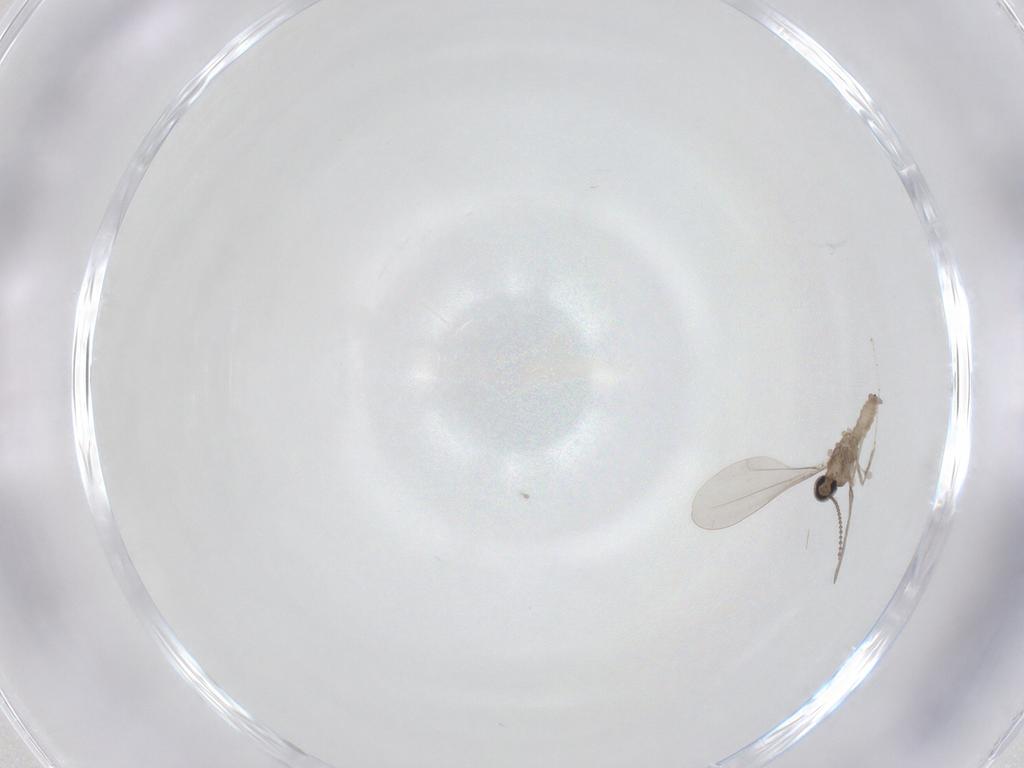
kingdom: Animalia
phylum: Arthropoda
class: Insecta
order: Diptera
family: Cecidomyiidae
